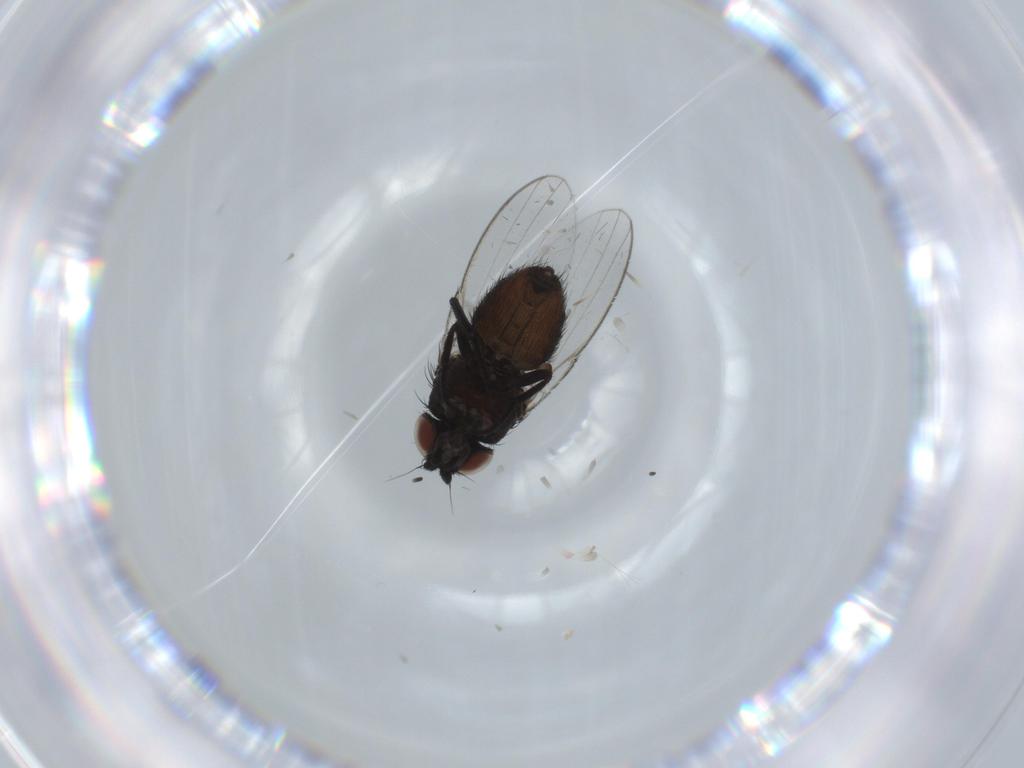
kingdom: Animalia
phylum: Arthropoda
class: Insecta
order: Diptera
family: Milichiidae
